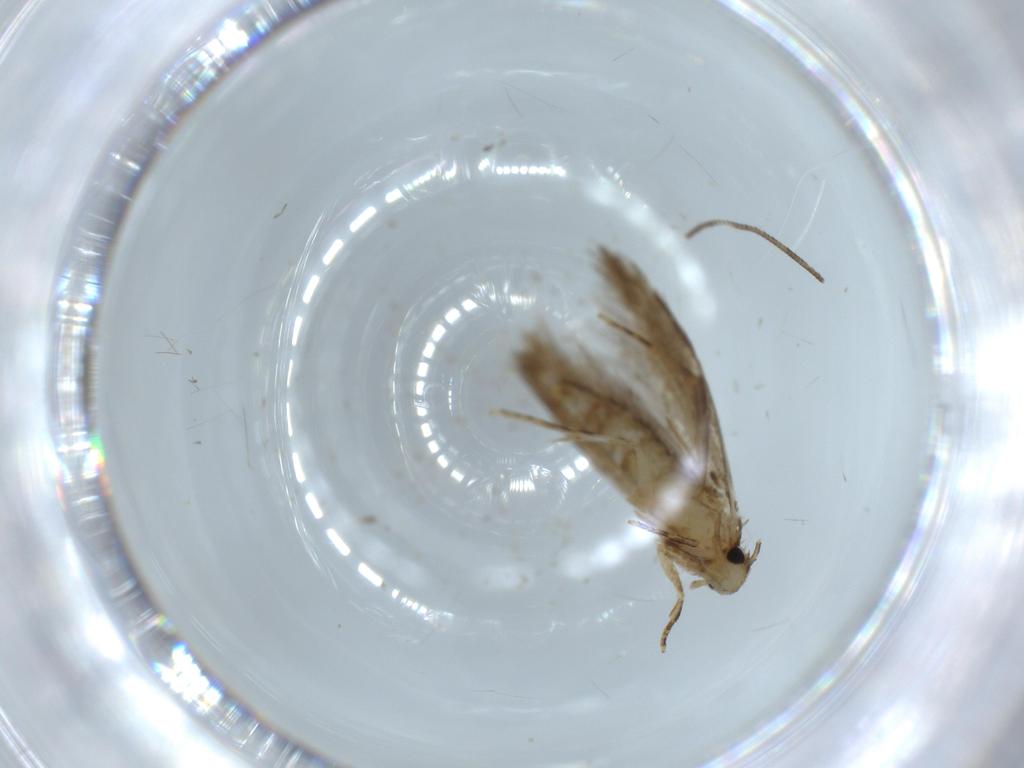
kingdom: Animalia
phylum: Arthropoda
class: Insecta
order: Lepidoptera
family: Tineidae
